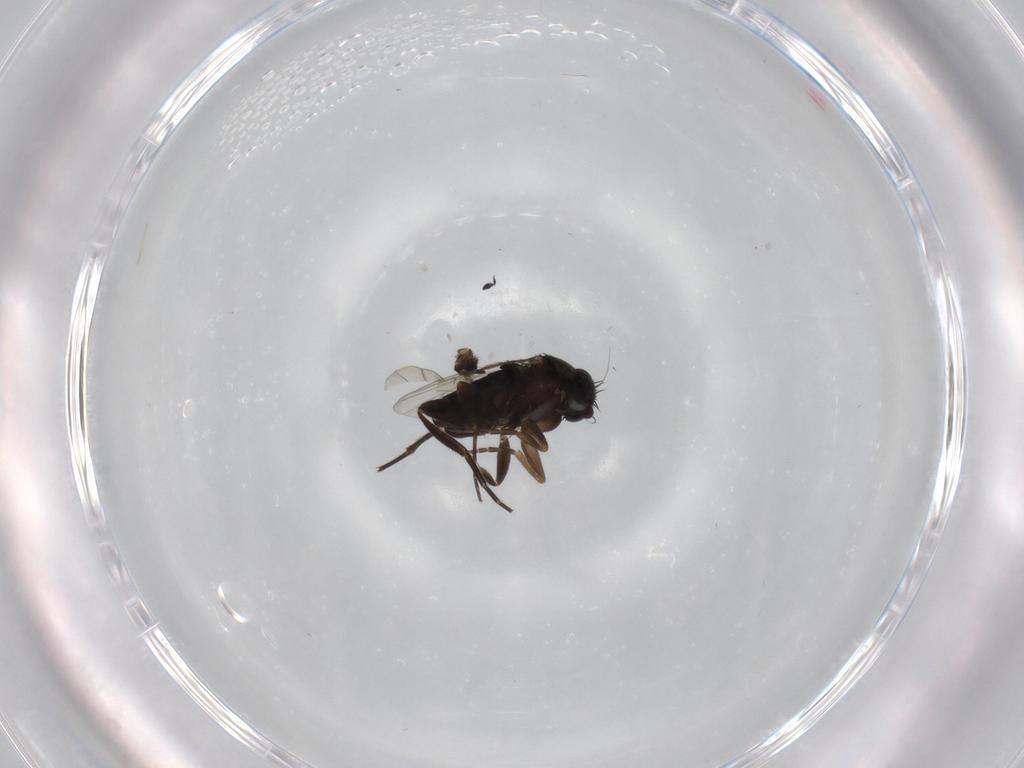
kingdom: Animalia
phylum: Arthropoda
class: Insecta
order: Diptera
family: Phoridae
